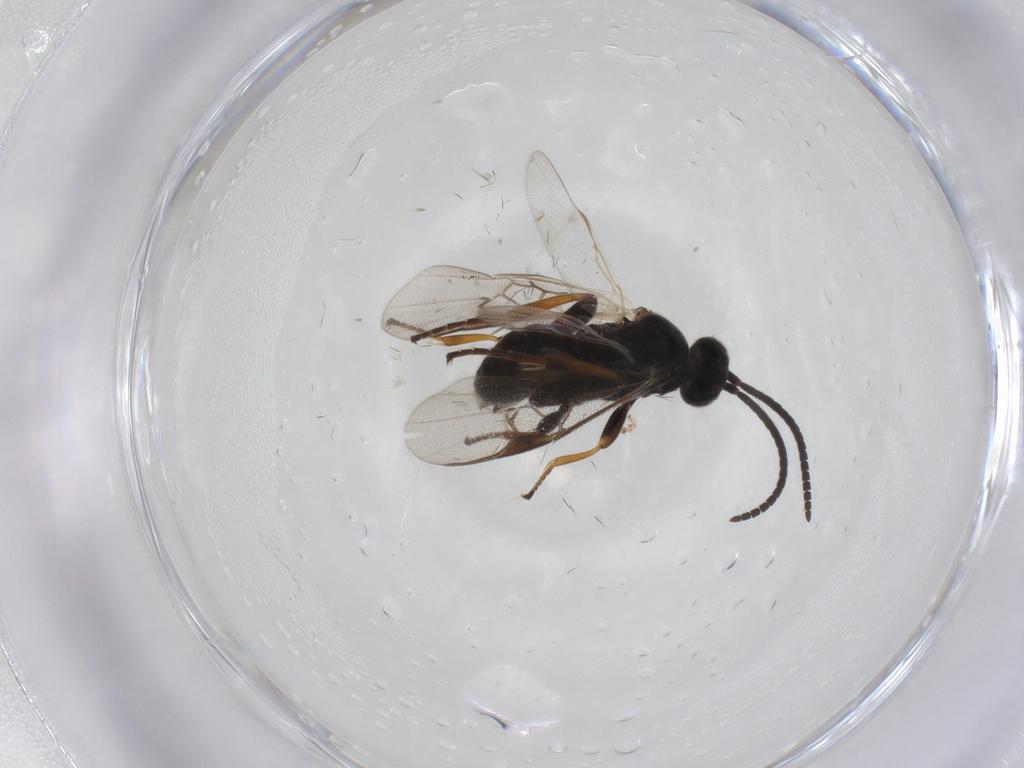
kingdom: Animalia
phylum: Arthropoda
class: Insecta
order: Hymenoptera
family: Braconidae
